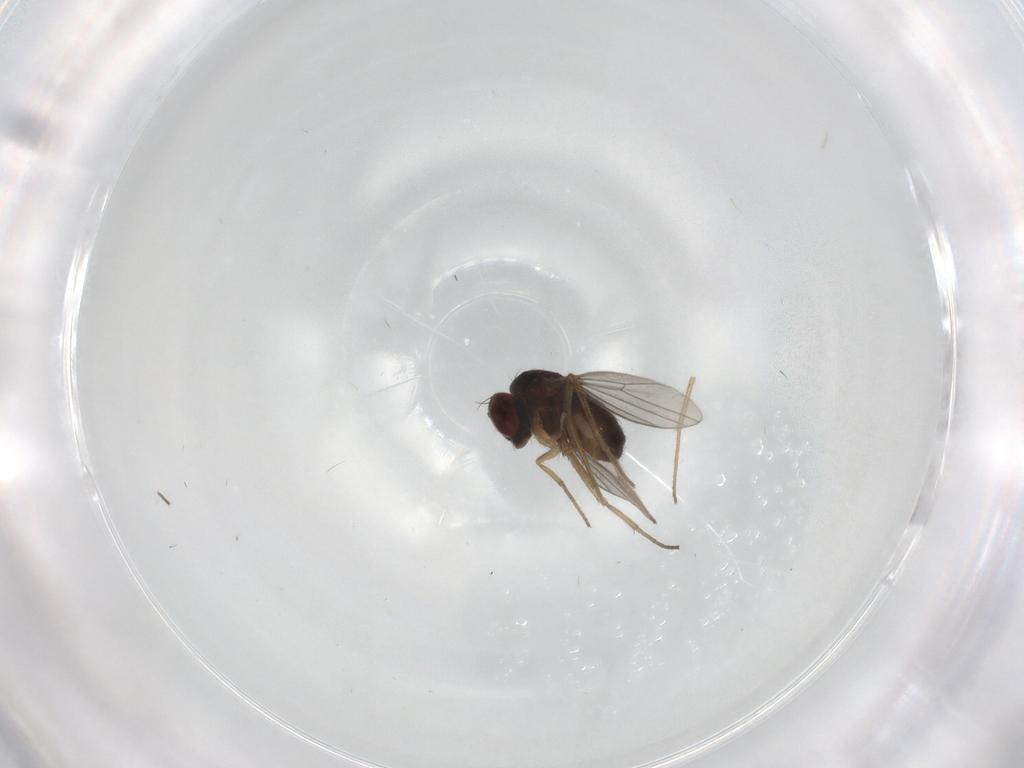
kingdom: Animalia
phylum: Arthropoda
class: Insecta
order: Diptera
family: Dolichopodidae
